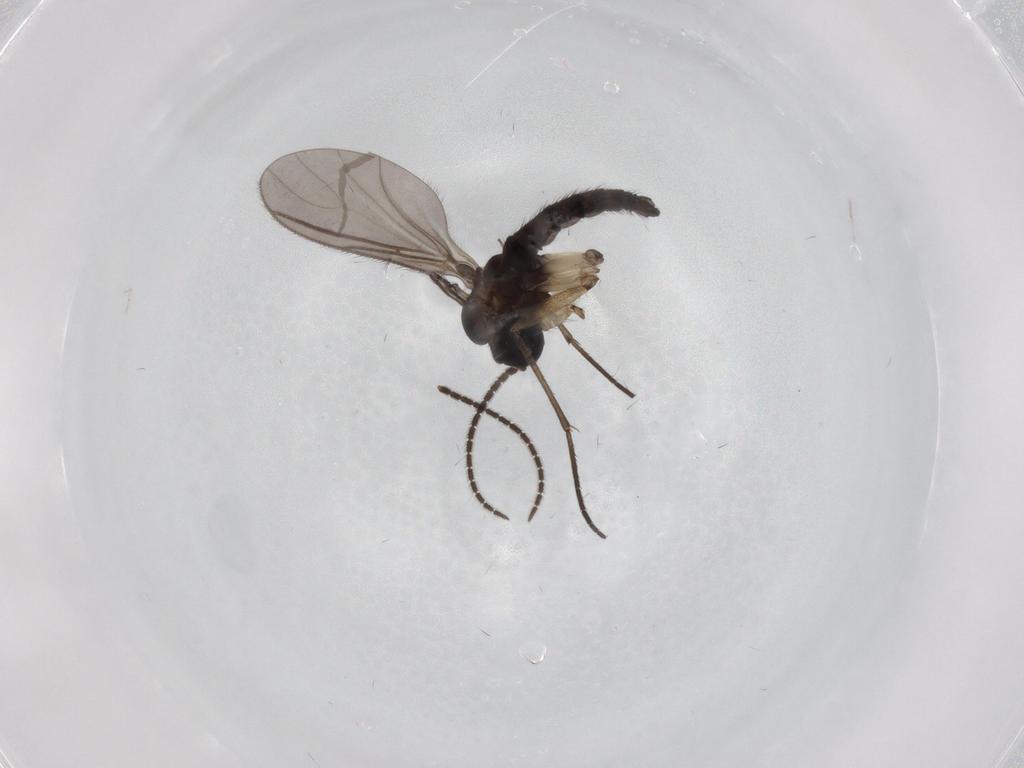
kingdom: Animalia
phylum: Arthropoda
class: Insecta
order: Diptera
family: Sciaridae
